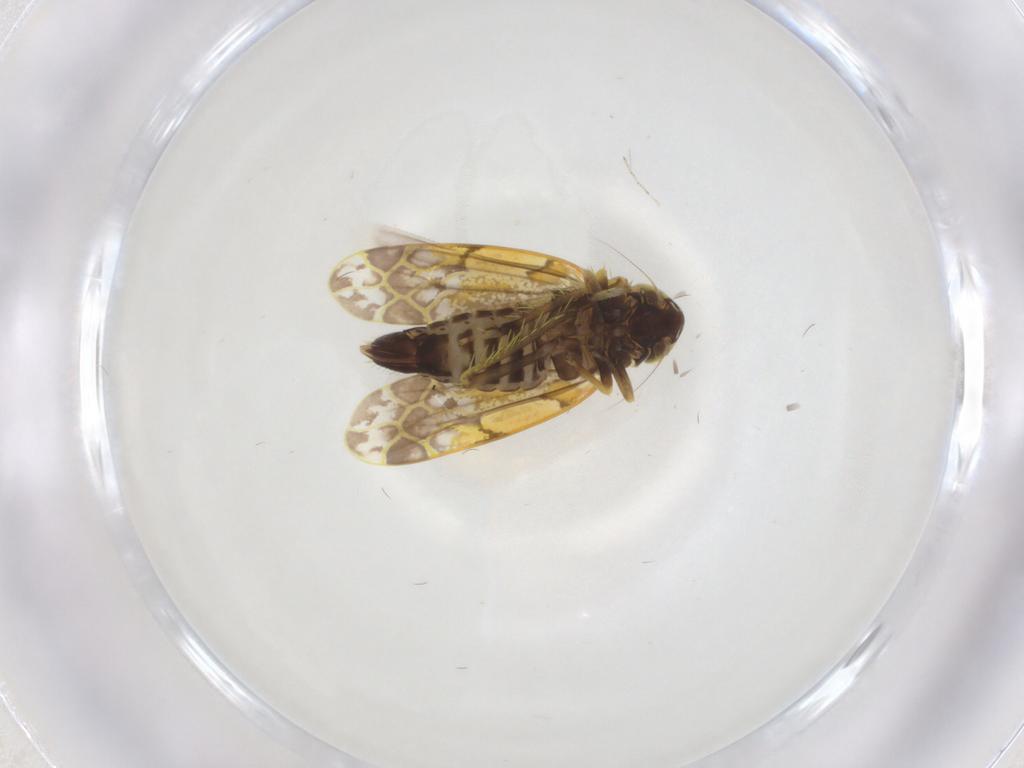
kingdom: Animalia
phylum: Arthropoda
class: Insecta
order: Hemiptera
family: Cicadellidae
